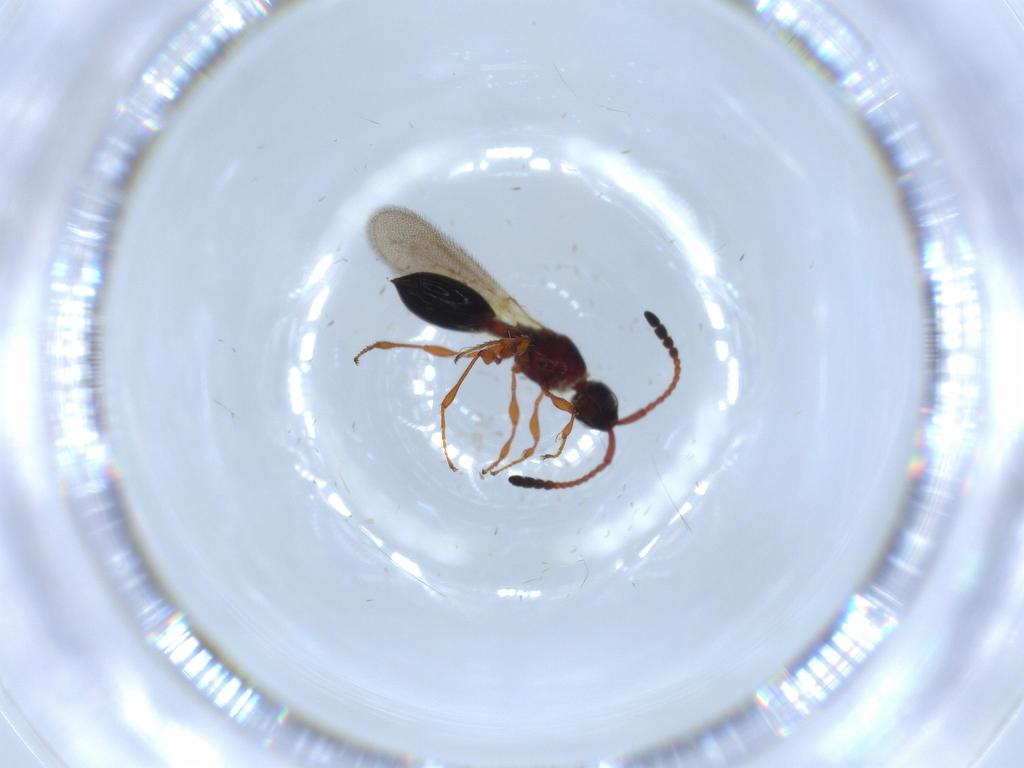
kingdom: Animalia
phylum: Arthropoda
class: Insecta
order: Hymenoptera
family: Diapriidae
